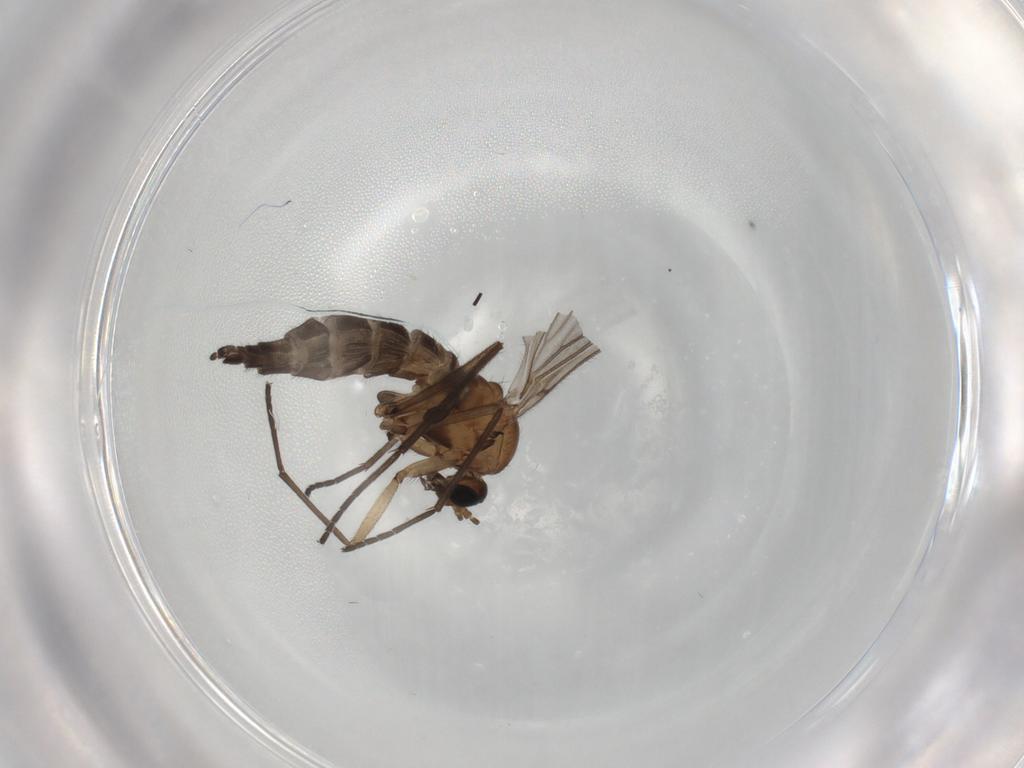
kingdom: Animalia
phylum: Arthropoda
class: Insecta
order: Diptera
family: Sciaridae
